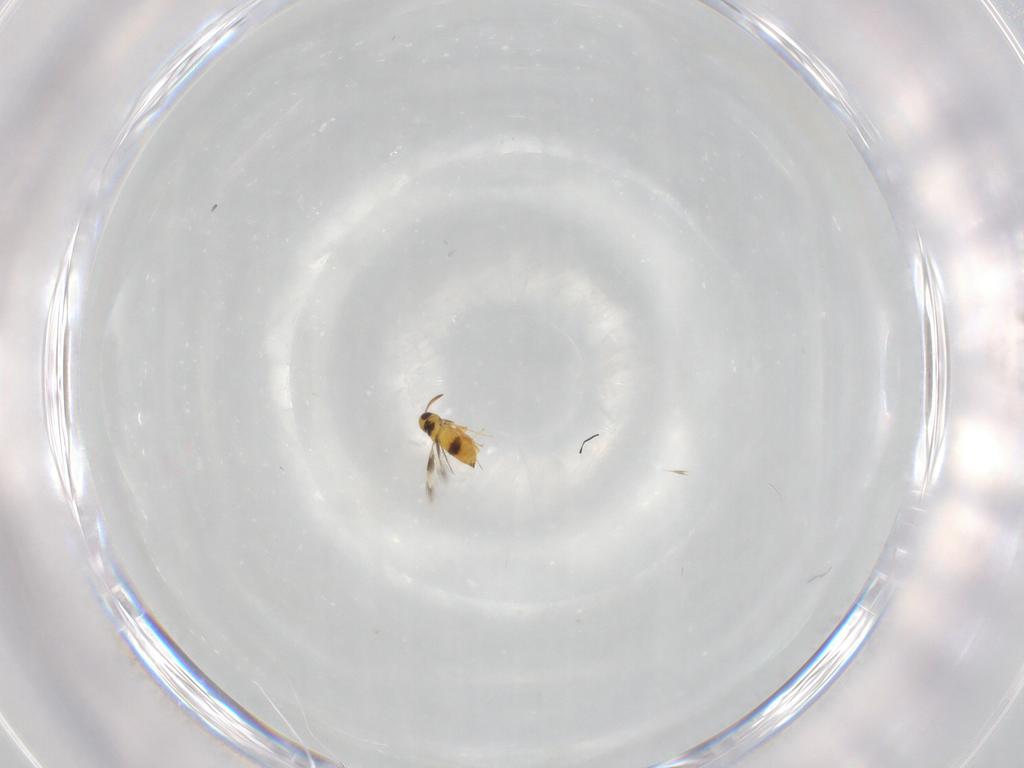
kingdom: Animalia
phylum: Arthropoda
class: Insecta
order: Hymenoptera
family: Signiphoridae
